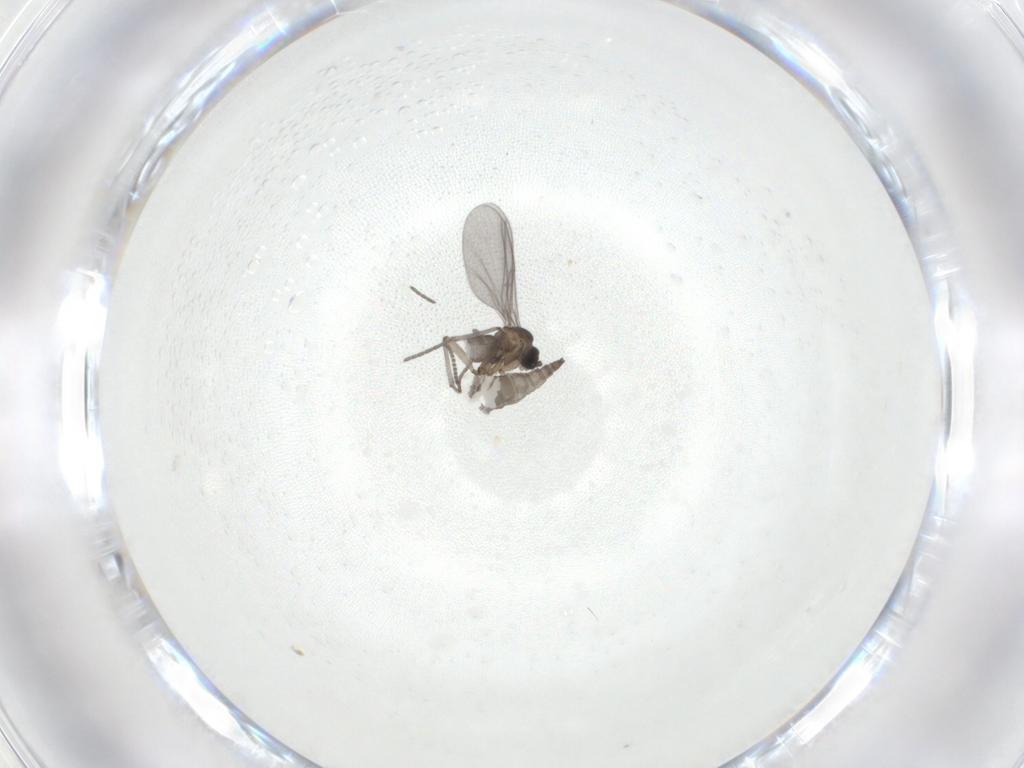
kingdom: Animalia
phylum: Arthropoda
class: Insecta
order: Diptera
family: Sciaridae
